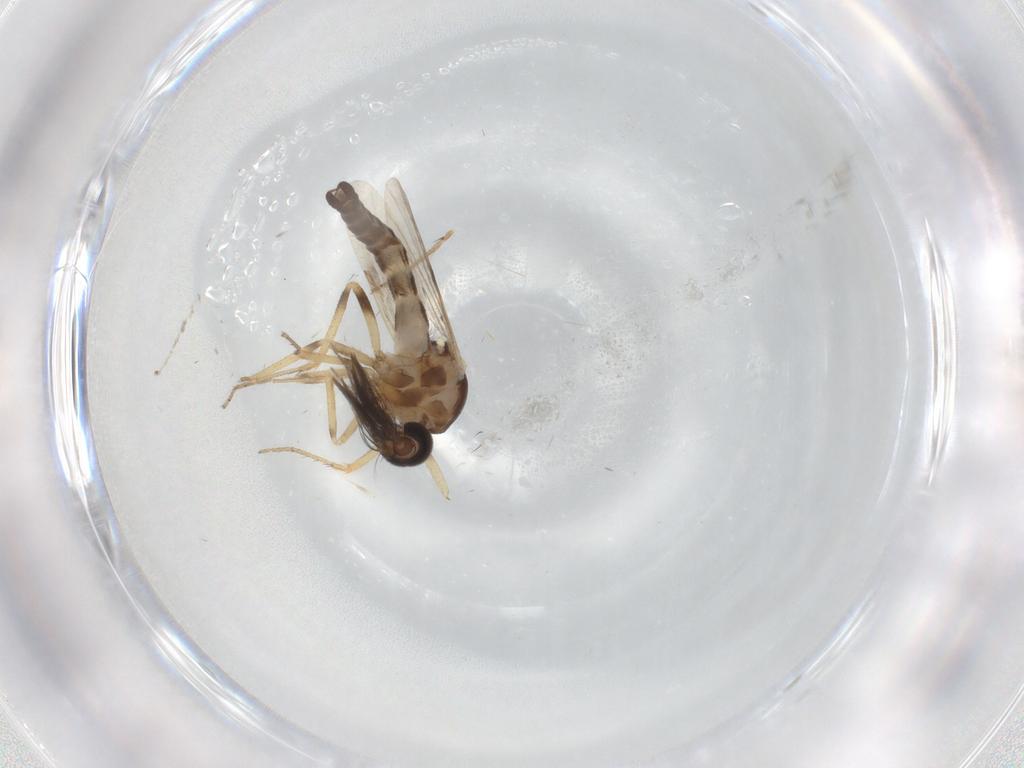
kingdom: Animalia
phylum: Arthropoda
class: Insecta
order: Diptera
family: Ceratopogonidae
